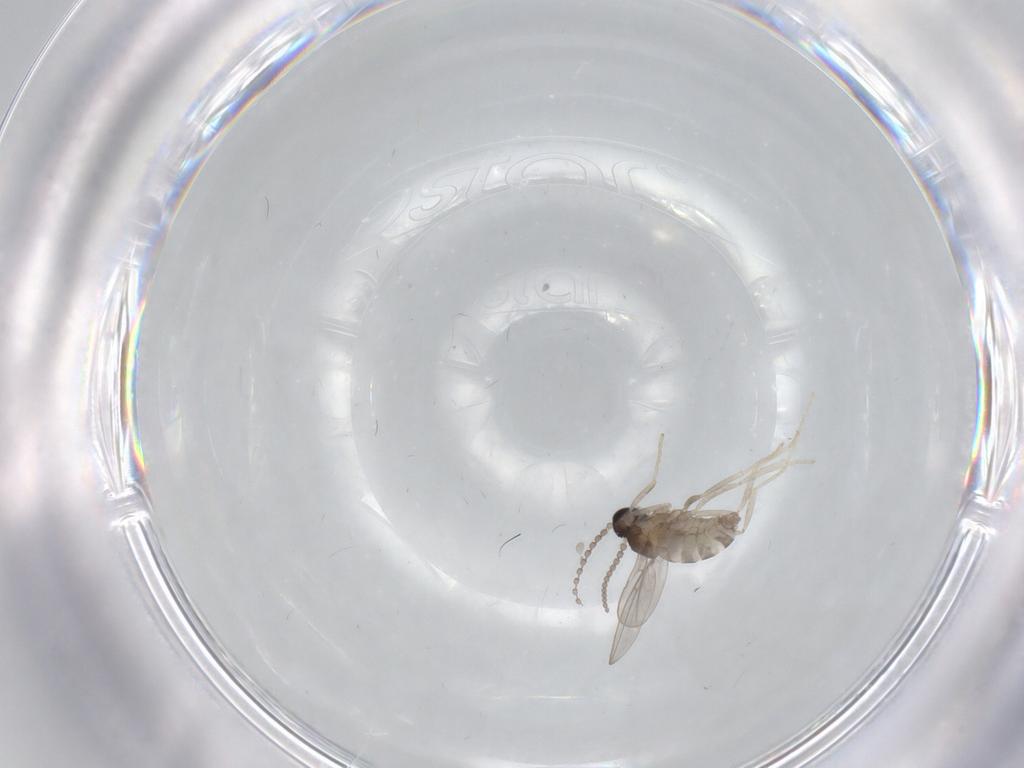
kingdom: Animalia
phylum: Arthropoda
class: Insecta
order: Diptera
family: Cecidomyiidae
